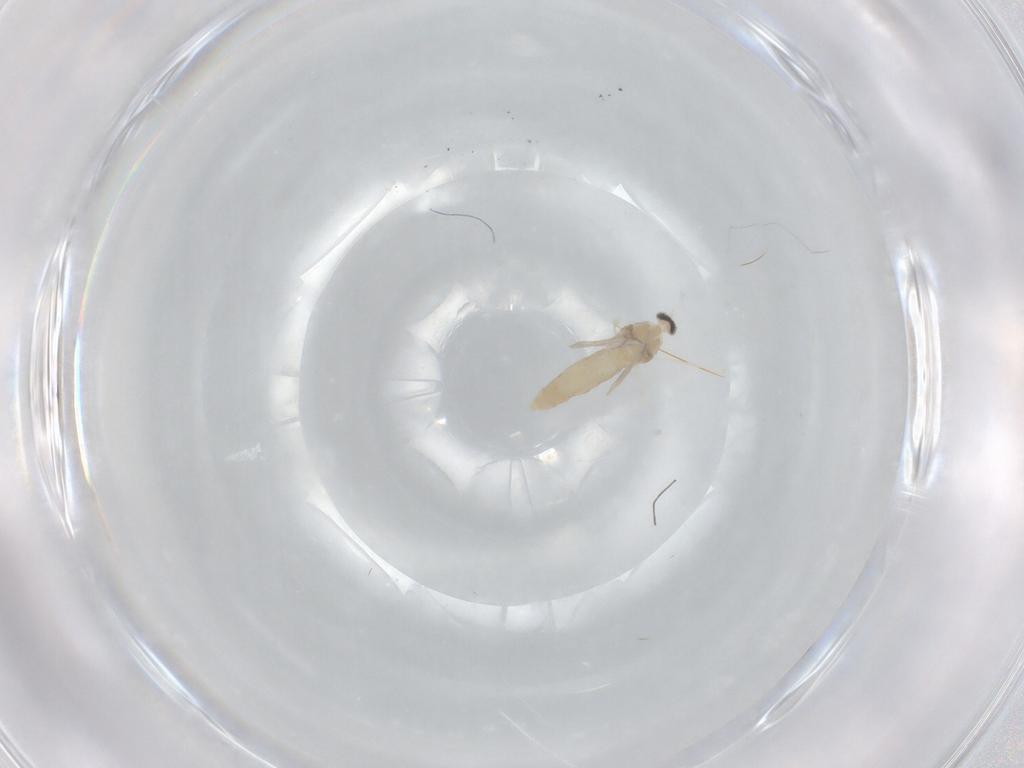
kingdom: Animalia
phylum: Arthropoda
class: Insecta
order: Diptera
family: Cecidomyiidae
